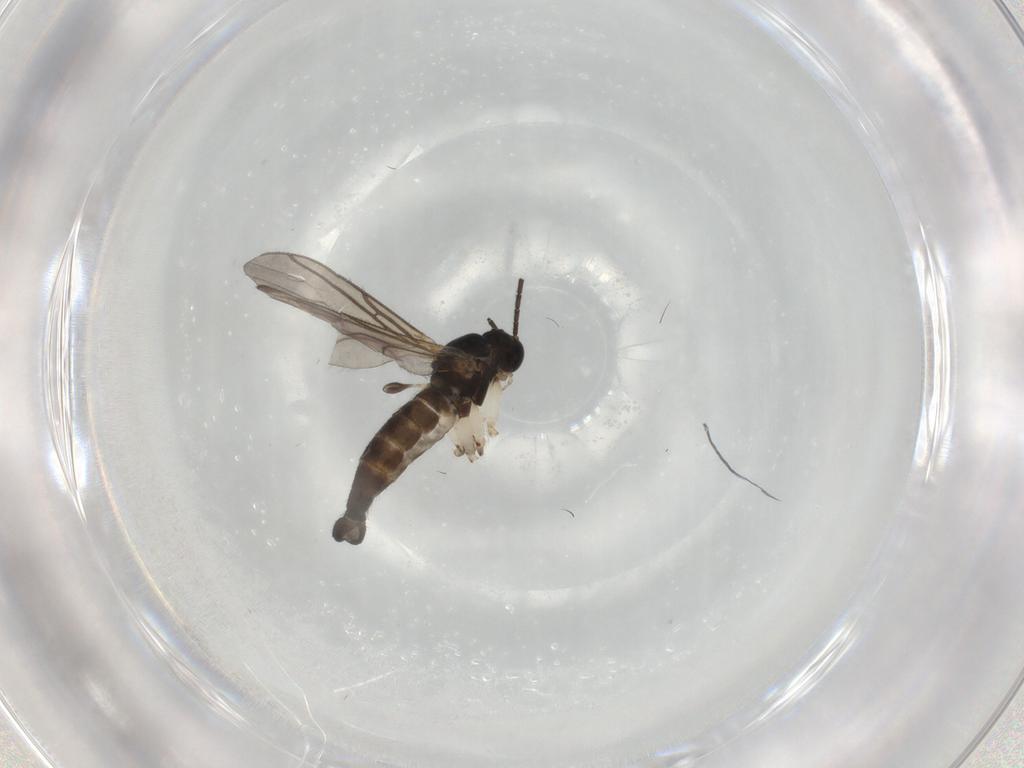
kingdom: Animalia
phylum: Arthropoda
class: Insecta
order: Diptera
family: Sciaridae
